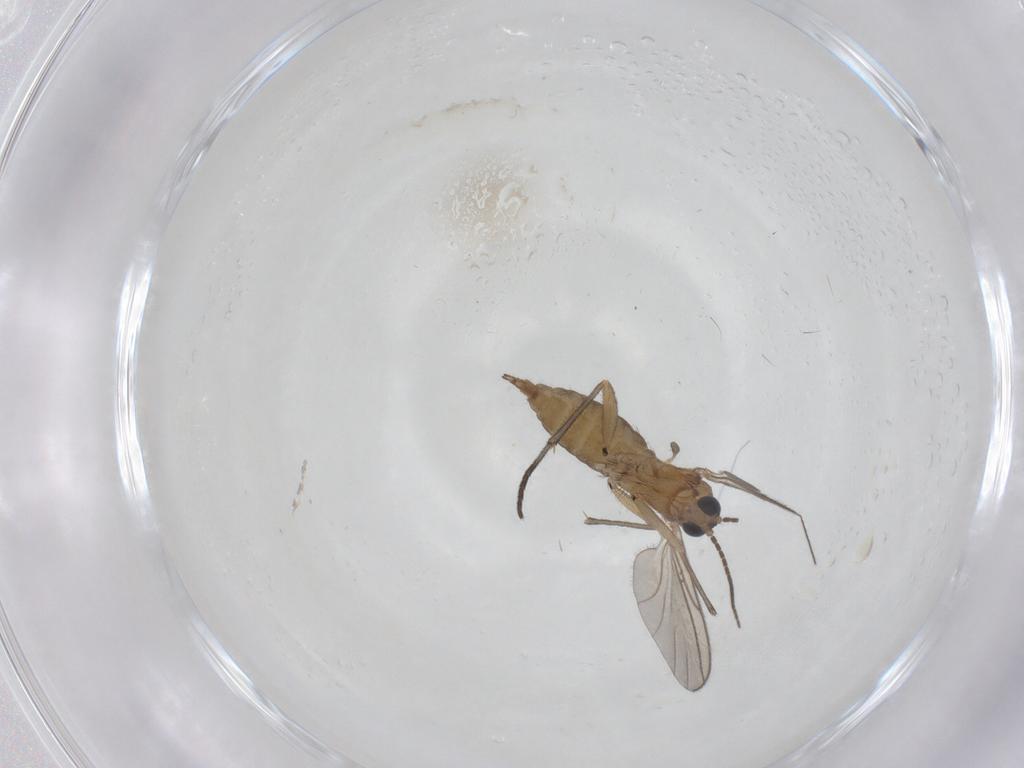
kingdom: Animalia
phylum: Arthropoda
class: Insecta
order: Diptera
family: Sciaridae
